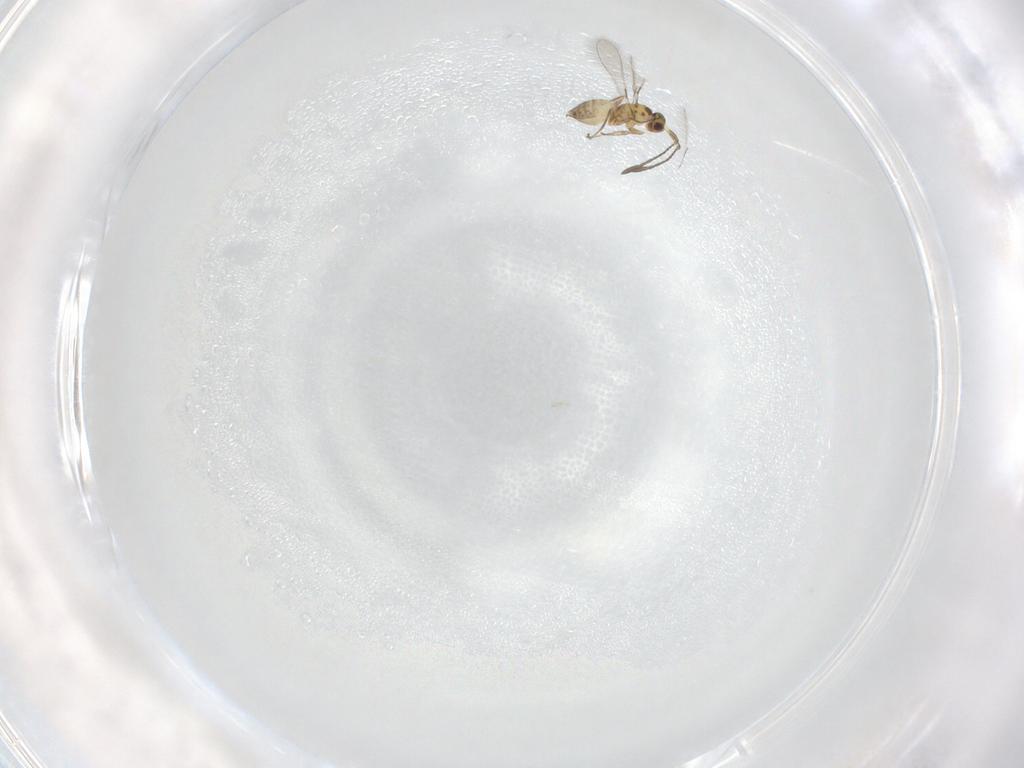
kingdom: Animalia
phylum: Arthropoda
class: Insecta
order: Hymenoptera
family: Mymaridae
